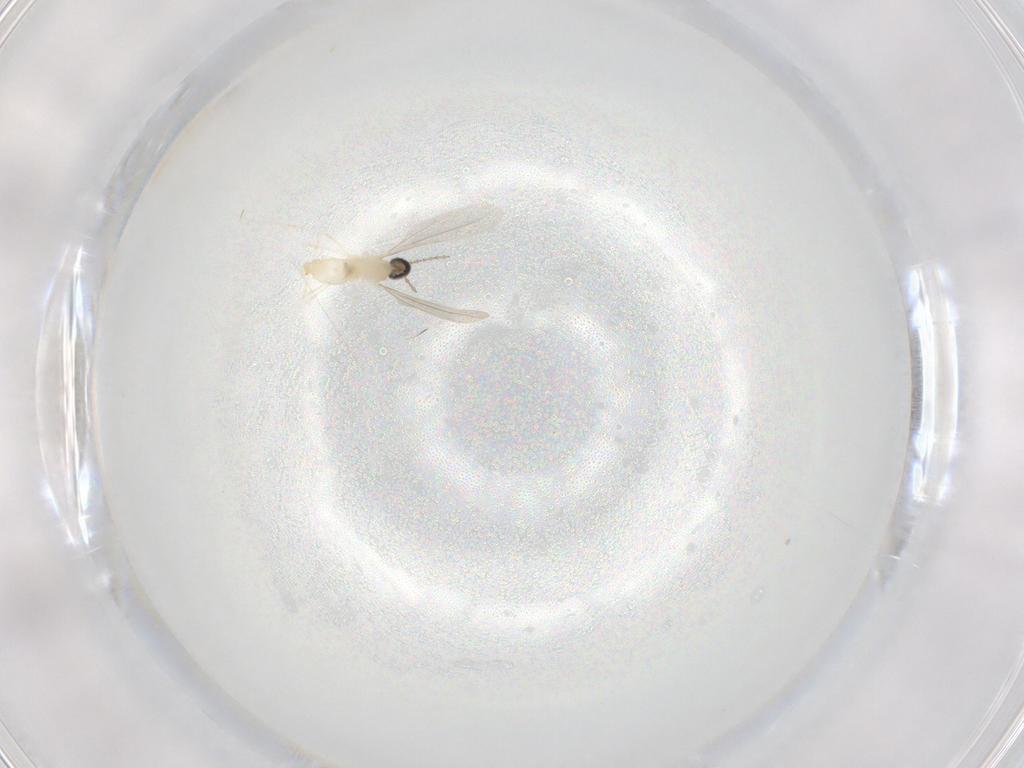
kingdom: Animalia
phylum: Arthropoda
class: Insecta
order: Diptera
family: Cecidomyiidae
